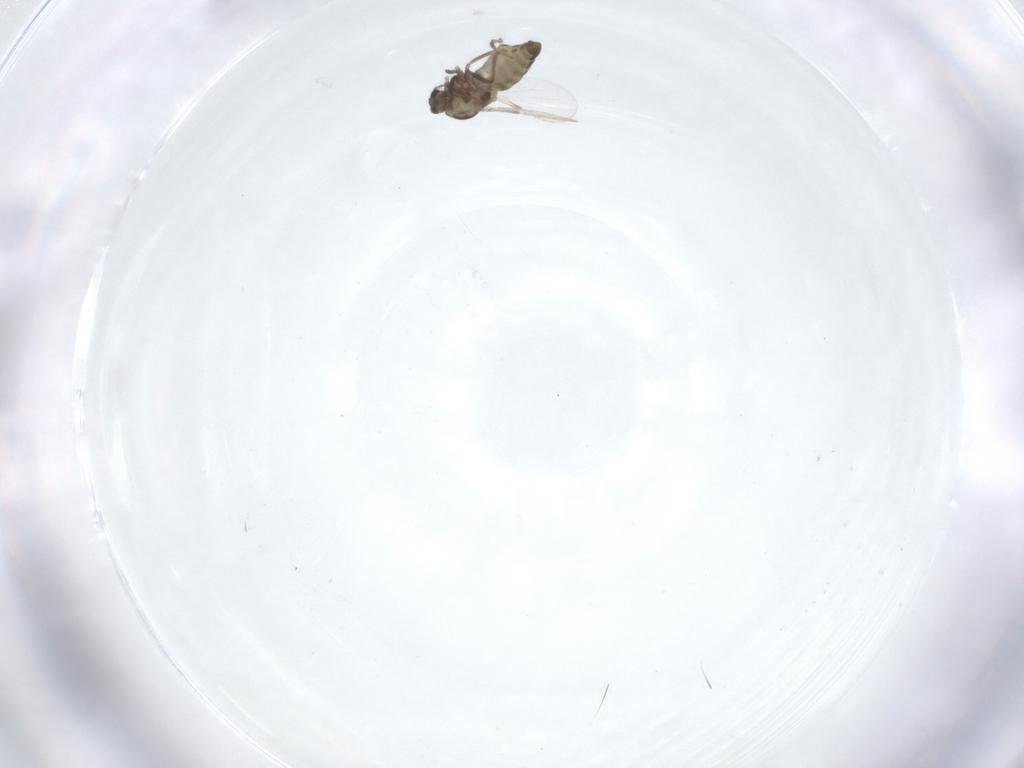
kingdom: Animalia
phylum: Arthropoda
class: Insecta
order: Diptera
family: Ceratopogonidae
